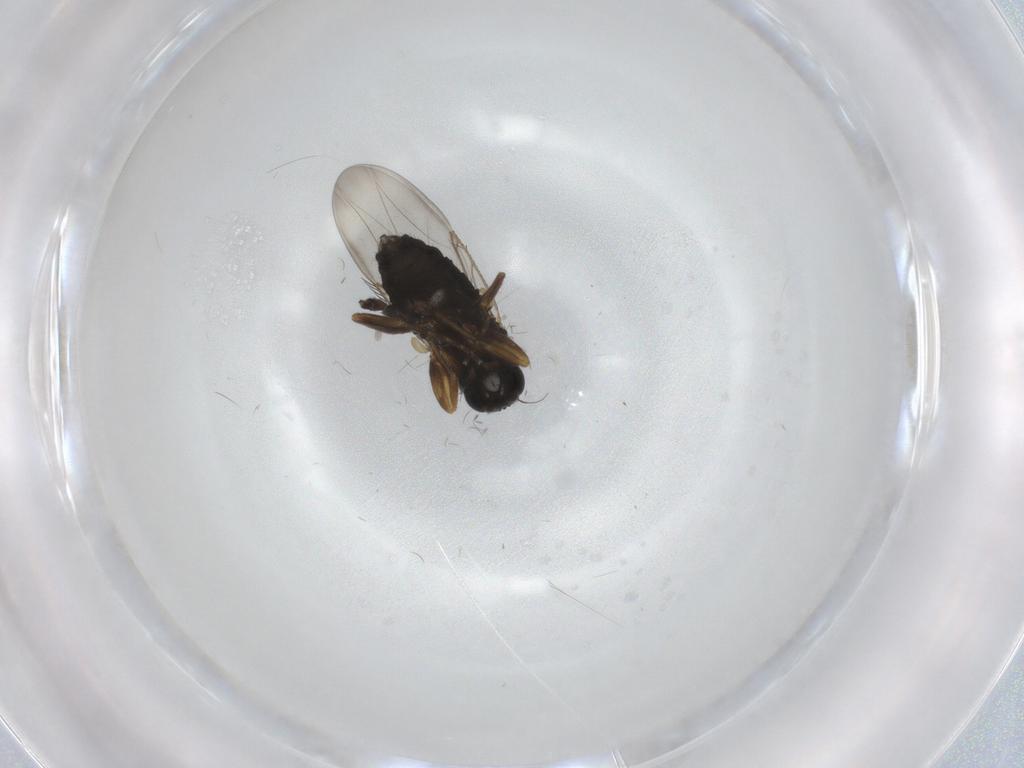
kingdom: Animalia
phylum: Arthropoda
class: Insecta
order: Diptera
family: Phoridae
